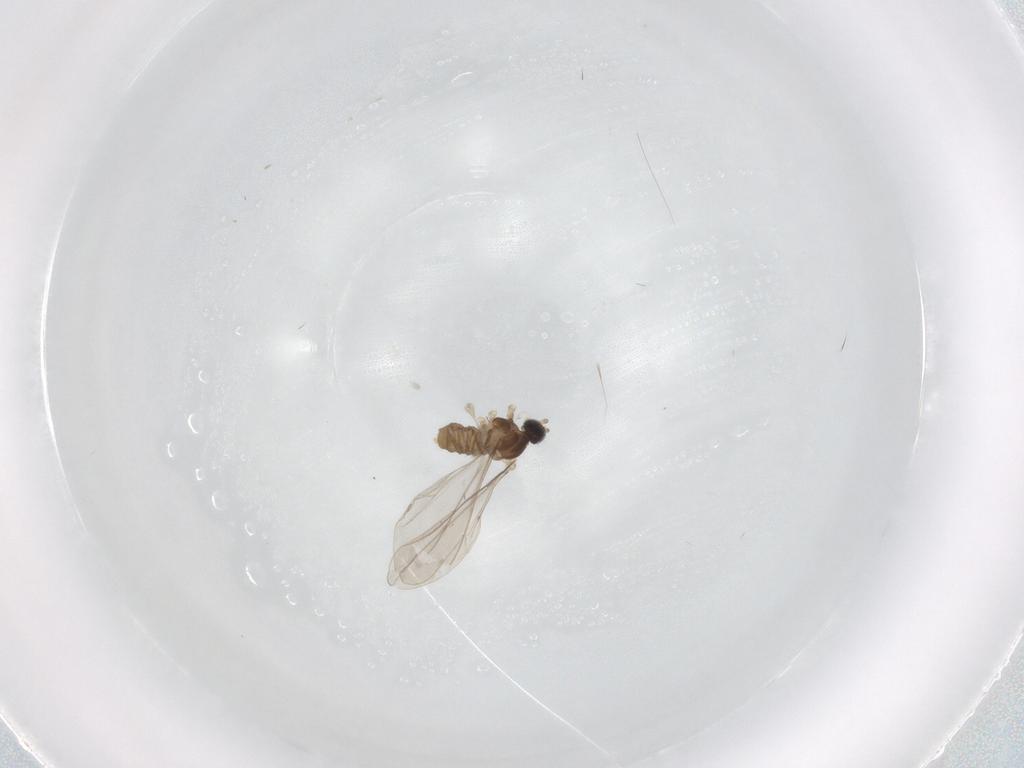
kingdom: Animalia
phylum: Arthropoda
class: Insecta
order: Diptera
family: Cecidomyiidae
